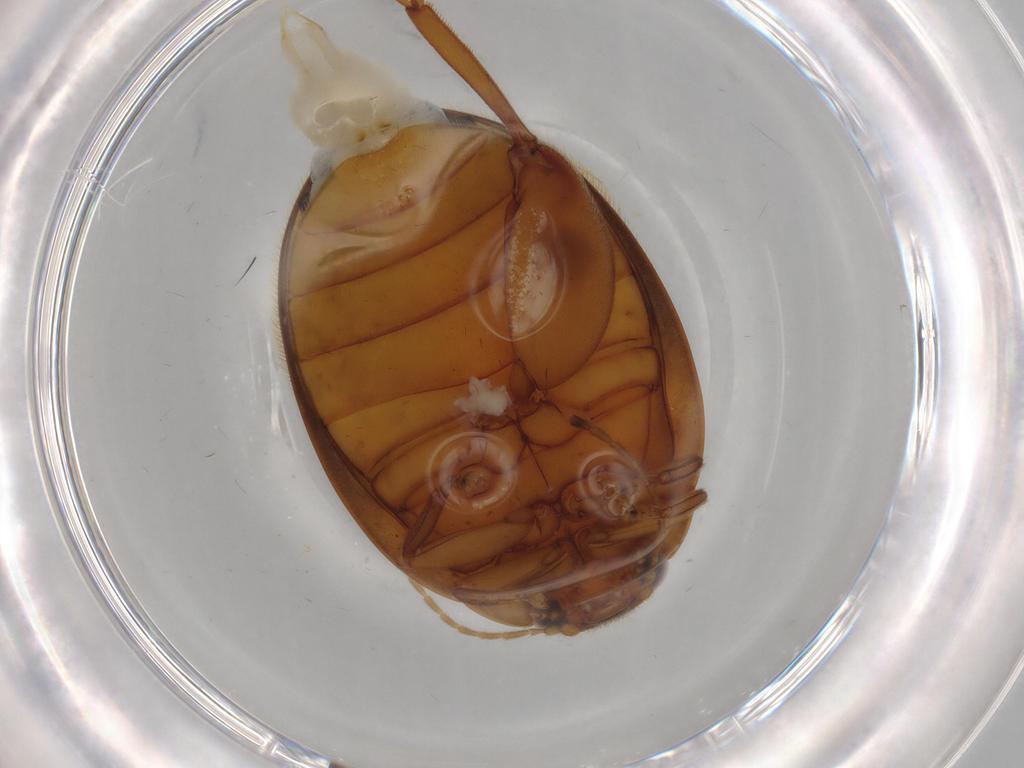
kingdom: Animalia
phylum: Arthropoda
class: Insecta
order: Coleoptera
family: Scirtidae
